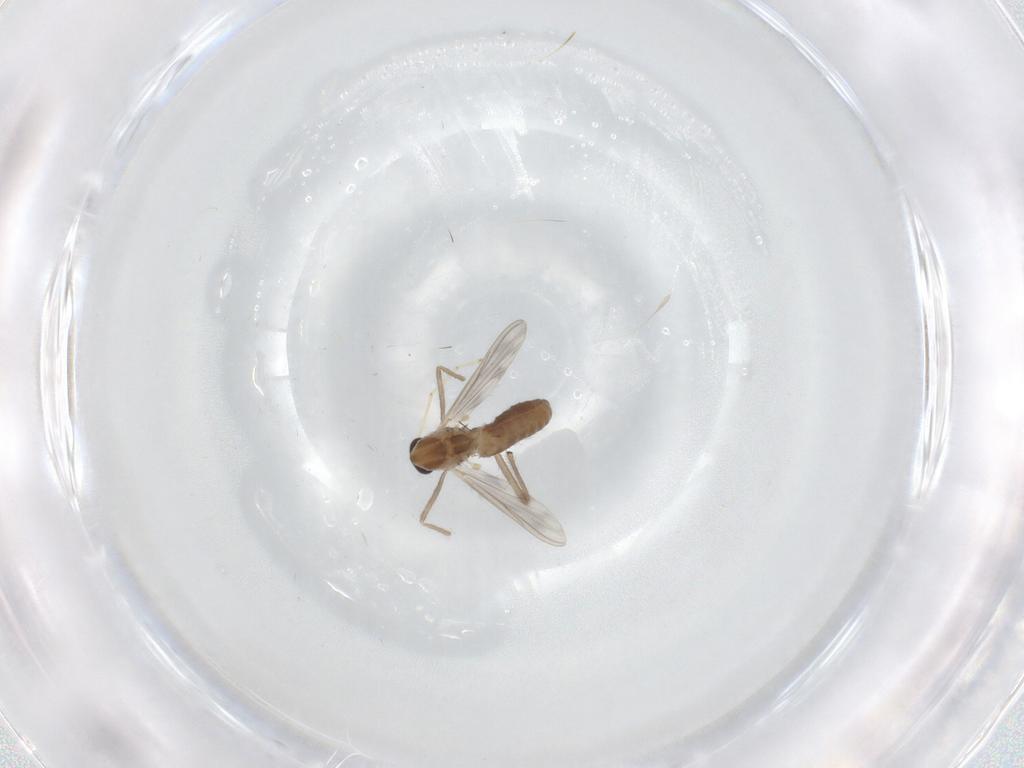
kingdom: Animalia
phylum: Arthropoda
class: Insecta
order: Diptera
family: Chironomidae
